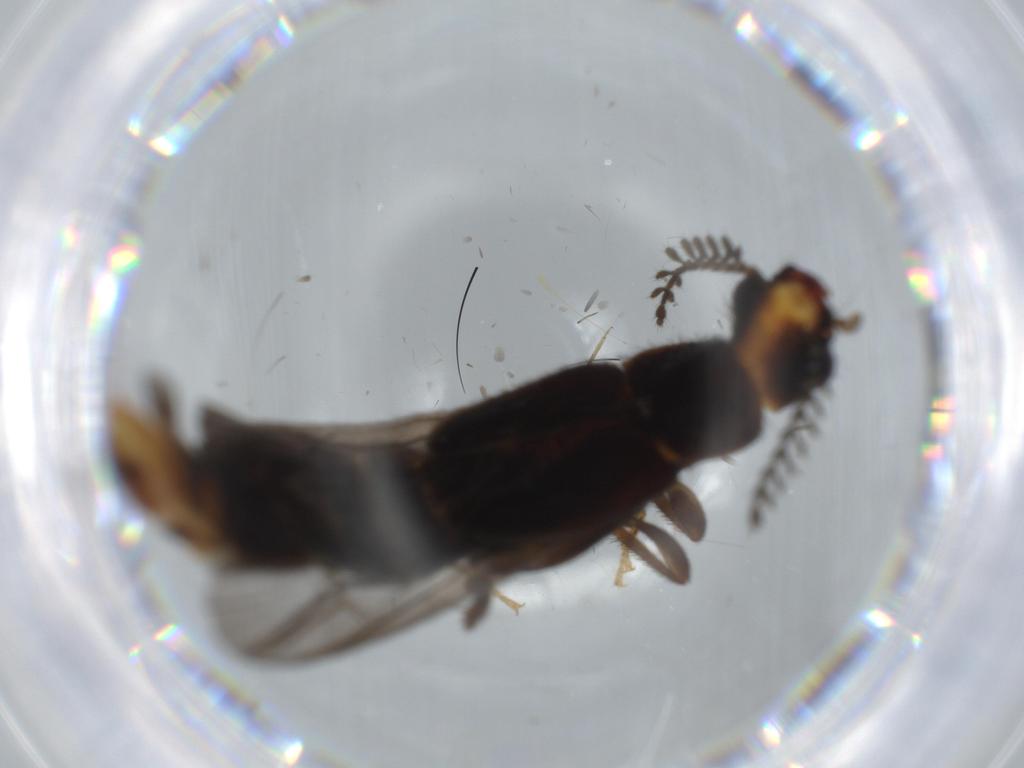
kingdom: Animalia
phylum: Arthropoda
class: Insecta
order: Coleoptera
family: Phengodidae
